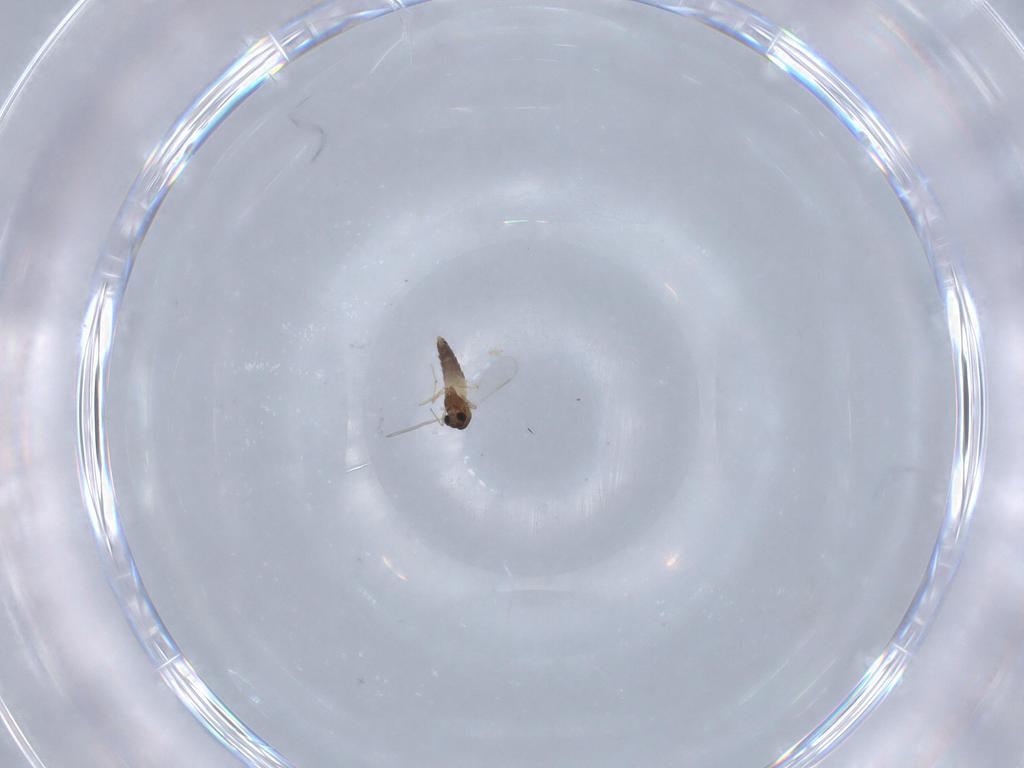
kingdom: Animalia
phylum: Arthropoda
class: Insecta
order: Diptera
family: Chironomidae
